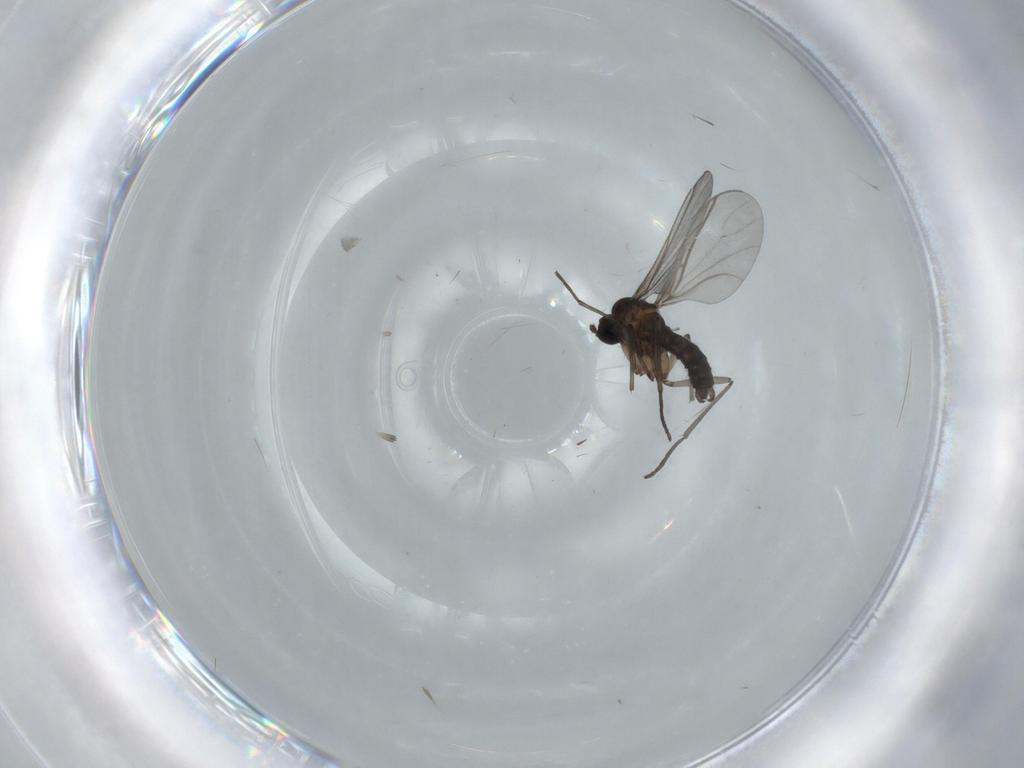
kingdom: Animalia
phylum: Arthropoda
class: Insecta
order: Diptera
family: Sciaridae
